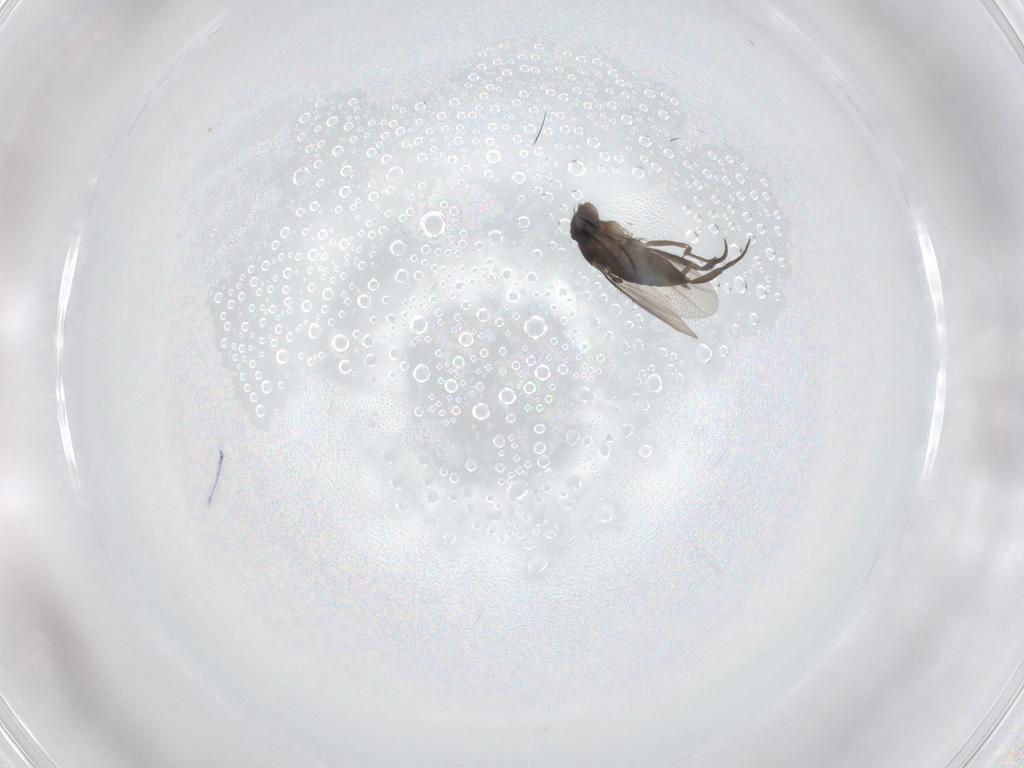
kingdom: Animalia
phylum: Arthropoda
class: Insecta
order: Diptera
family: Phoridae
